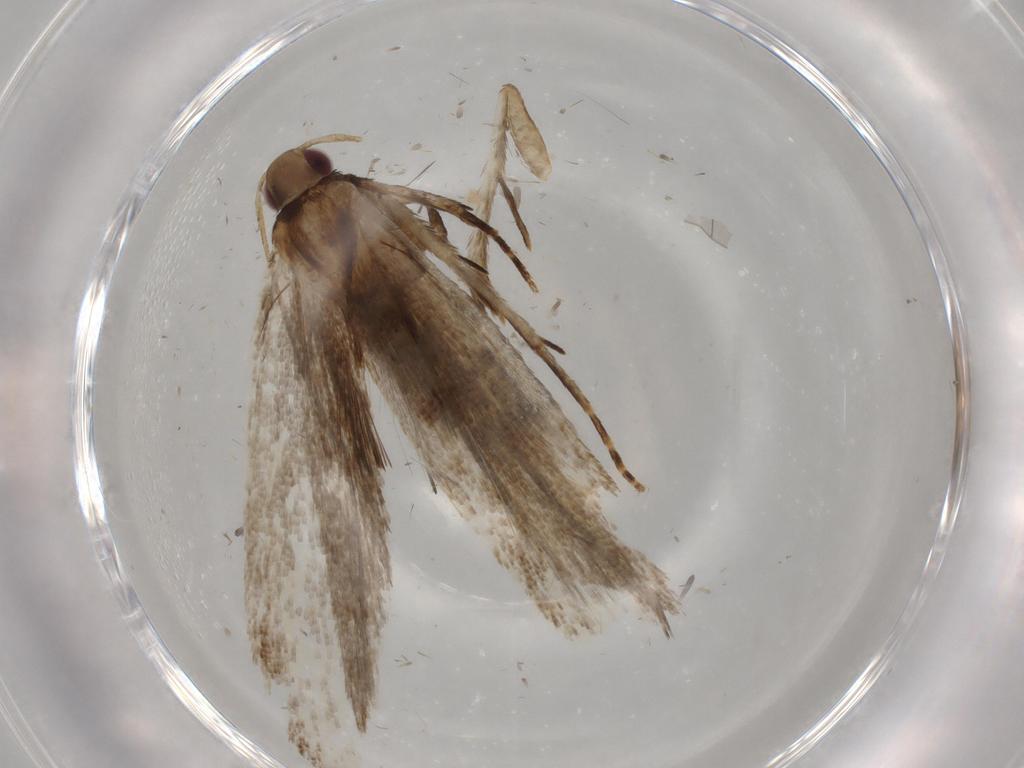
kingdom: Animalia
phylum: Arthropoda
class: Insecta
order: Lepidoptera
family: Gelechiidae
